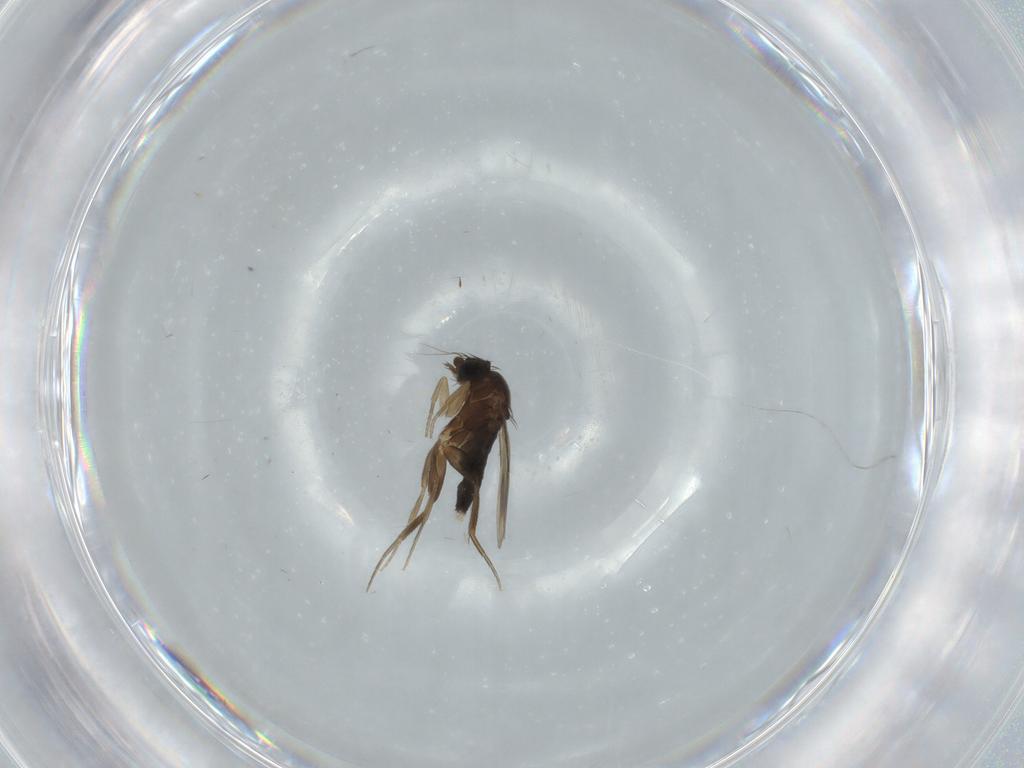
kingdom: Animalia
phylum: Arthropoda
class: Insecta
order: Diptera
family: Phoridae
